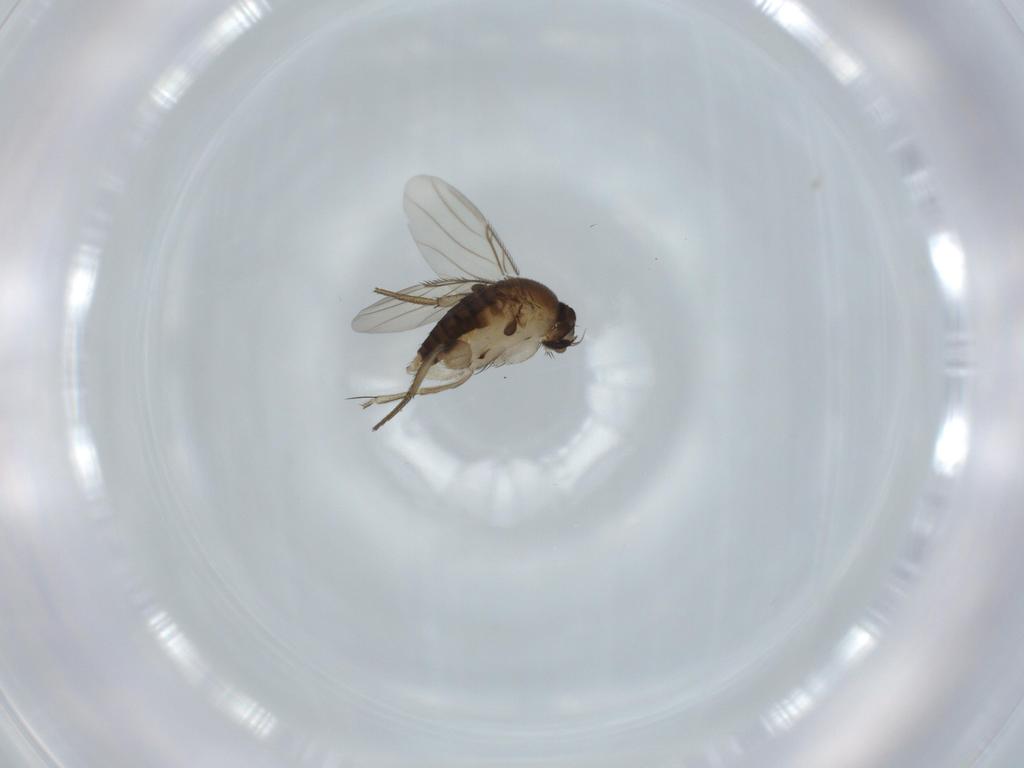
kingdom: Animalia
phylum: Arthropoda
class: Insecta
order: Diptera
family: Phoridae
